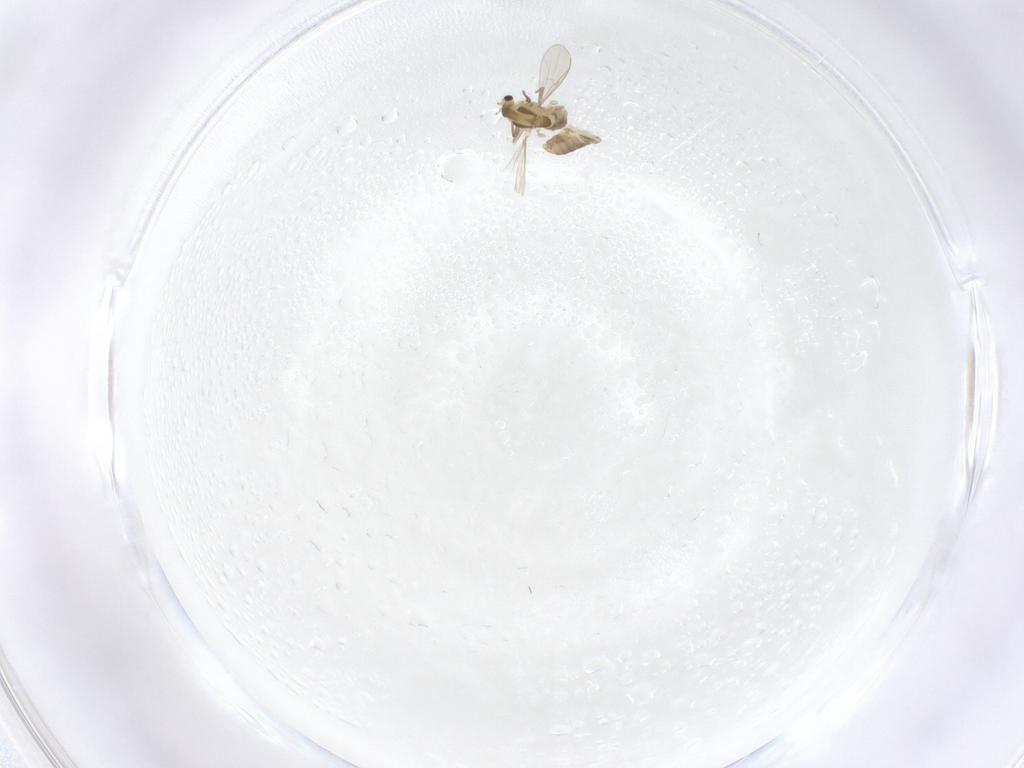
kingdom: Animalia
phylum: Arthropoda
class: Insecta
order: Diptera
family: Chironomidae
